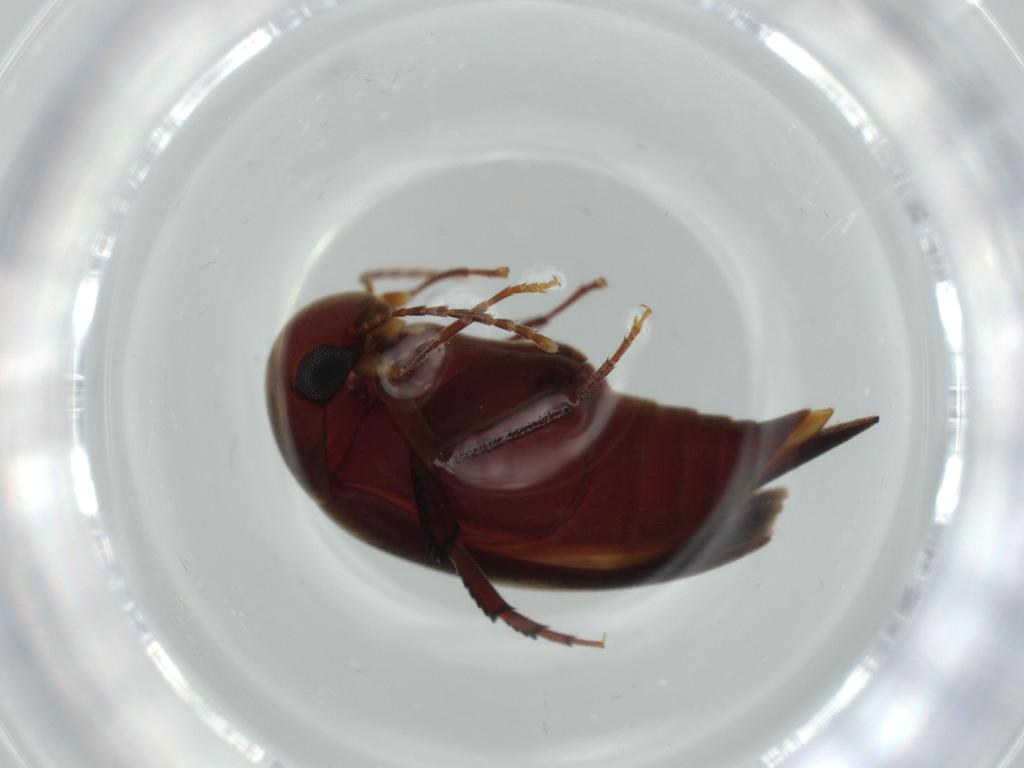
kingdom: Animalia
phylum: Arthropoda
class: Insecta
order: Coleoptera
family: Mordellidae
